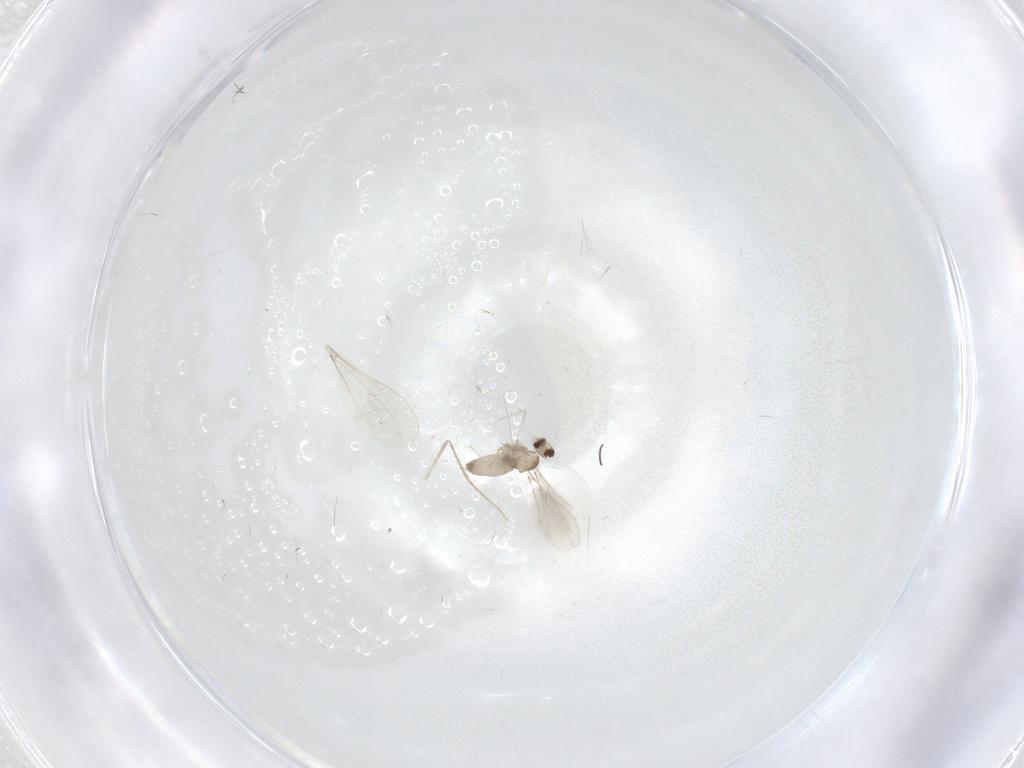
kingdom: Animalia
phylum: Arthropoda
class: Insecta
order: Diptera
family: Cecidomyiidae
